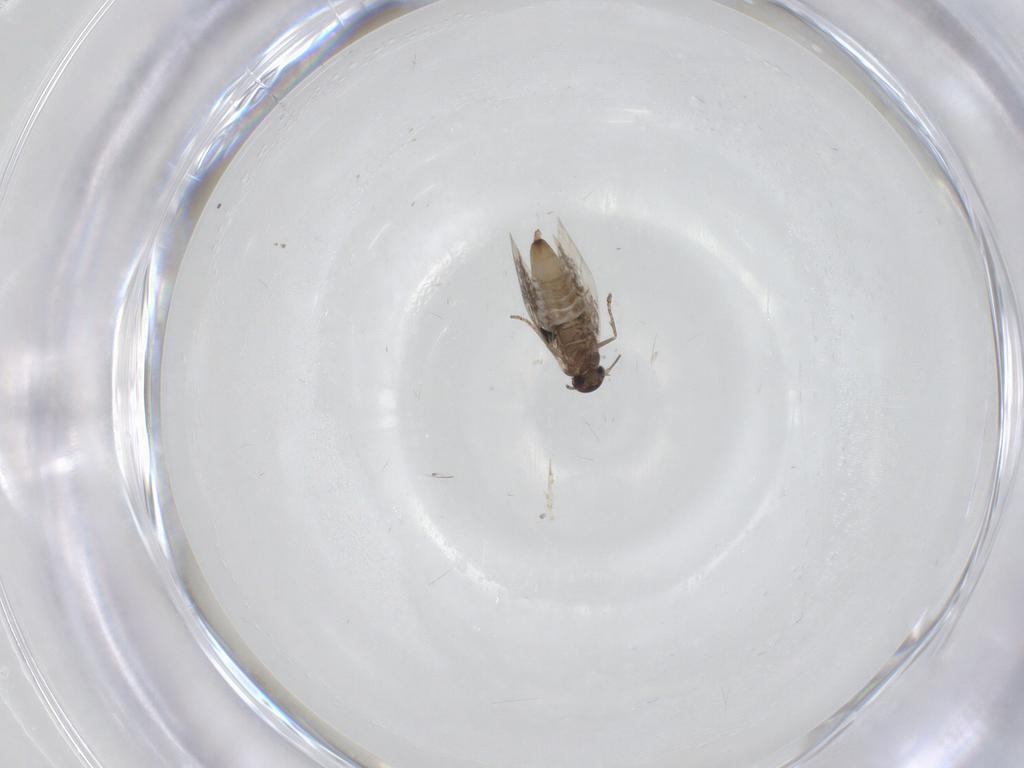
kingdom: Animalia
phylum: Arthropoda
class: Insecta
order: Diptera
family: Dolichopodidae
